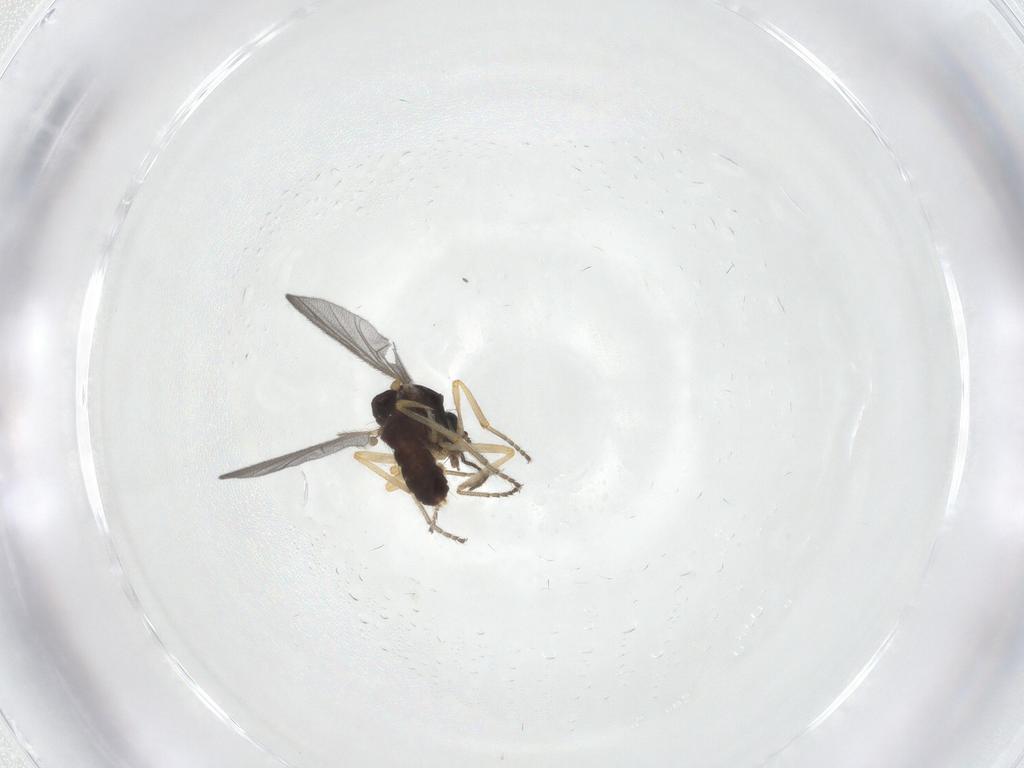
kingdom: Animalia
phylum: Arthropoda
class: Insecta
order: Diptera
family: Ceratopogonidae
